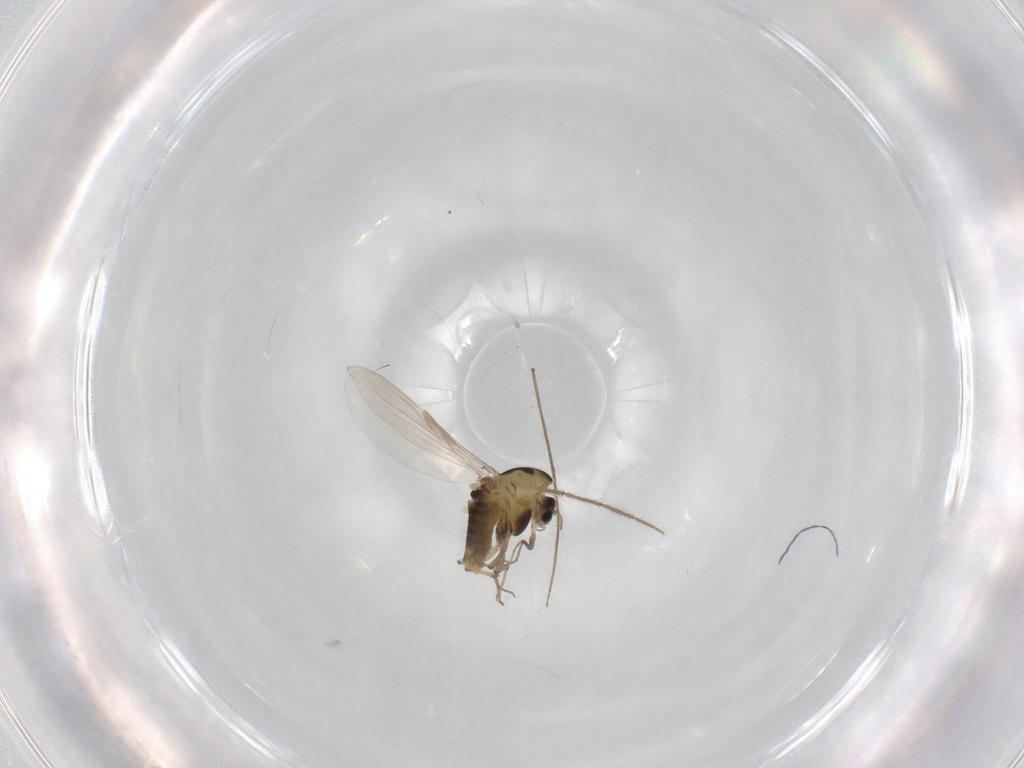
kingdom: Animalia
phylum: Arthropoda
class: Insecta
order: Diptera
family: Chironomidae
